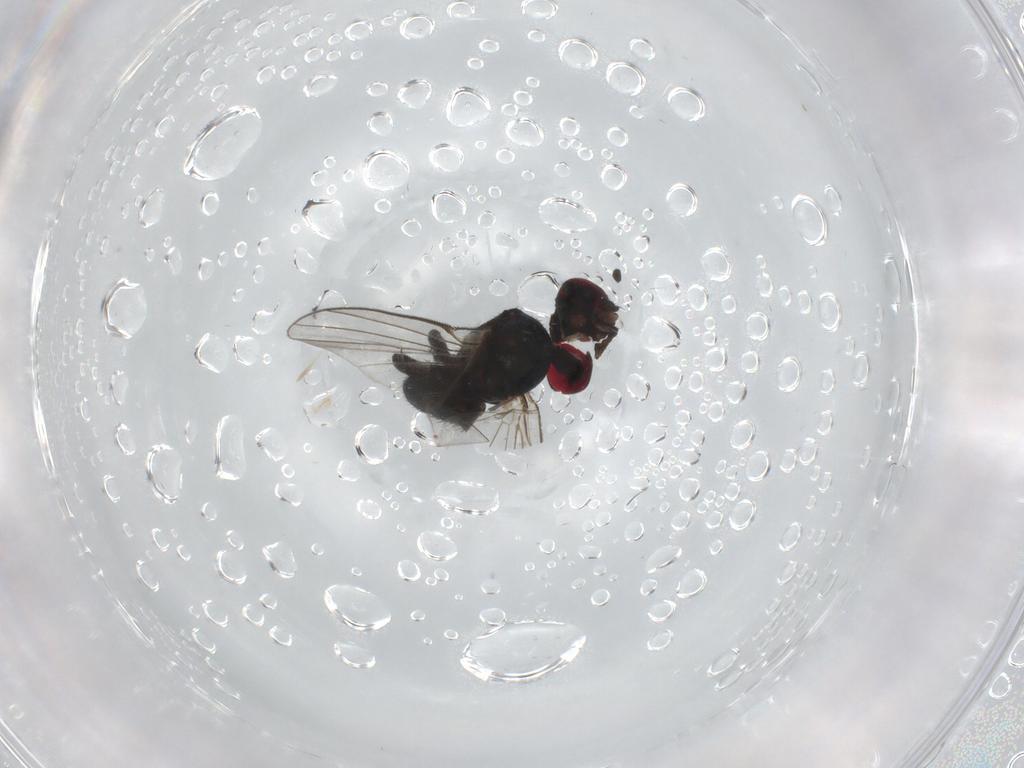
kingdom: Animalia
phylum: Arthropoda
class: Insecta
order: Diptera
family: Agromyzidae
